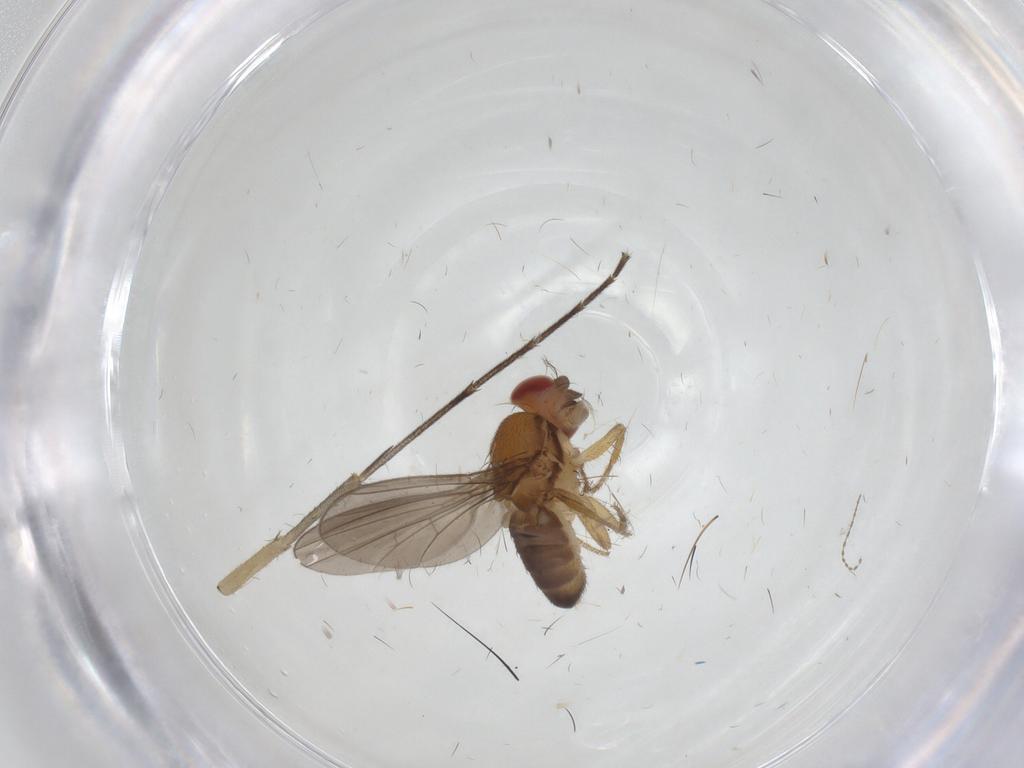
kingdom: Animalia
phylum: Arthropoda
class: Insecta
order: Diptera
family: Drosophilidae
